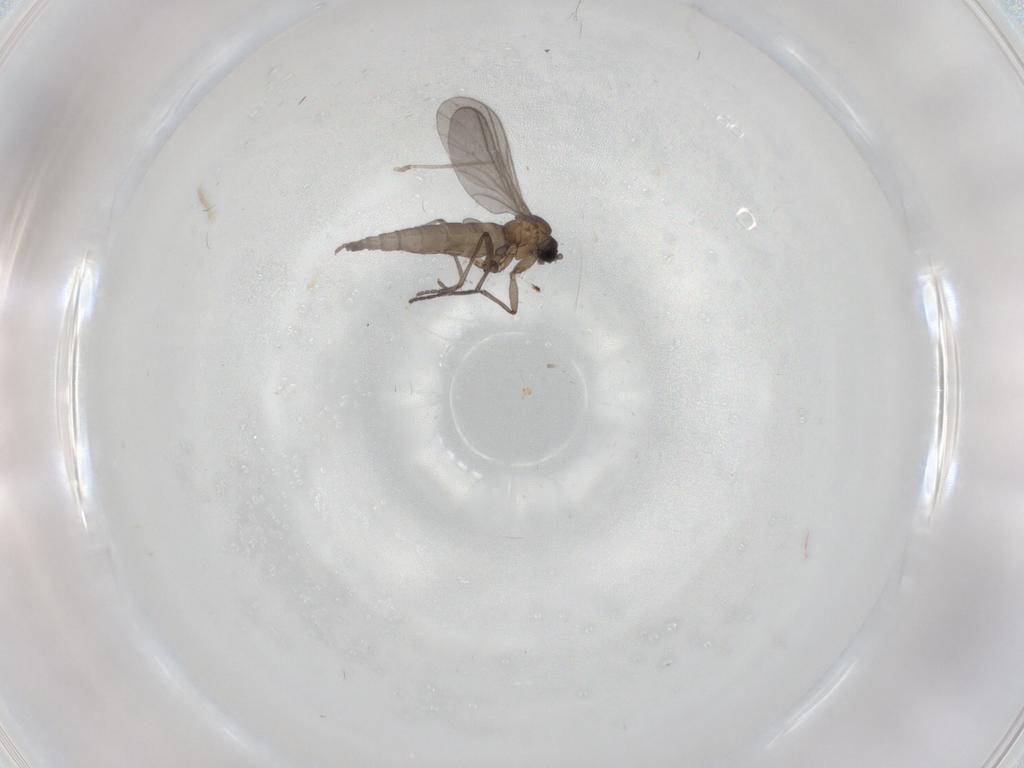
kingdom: Animalia
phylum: Arthropoda
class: Insecta
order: Diptera
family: Sciaridae
